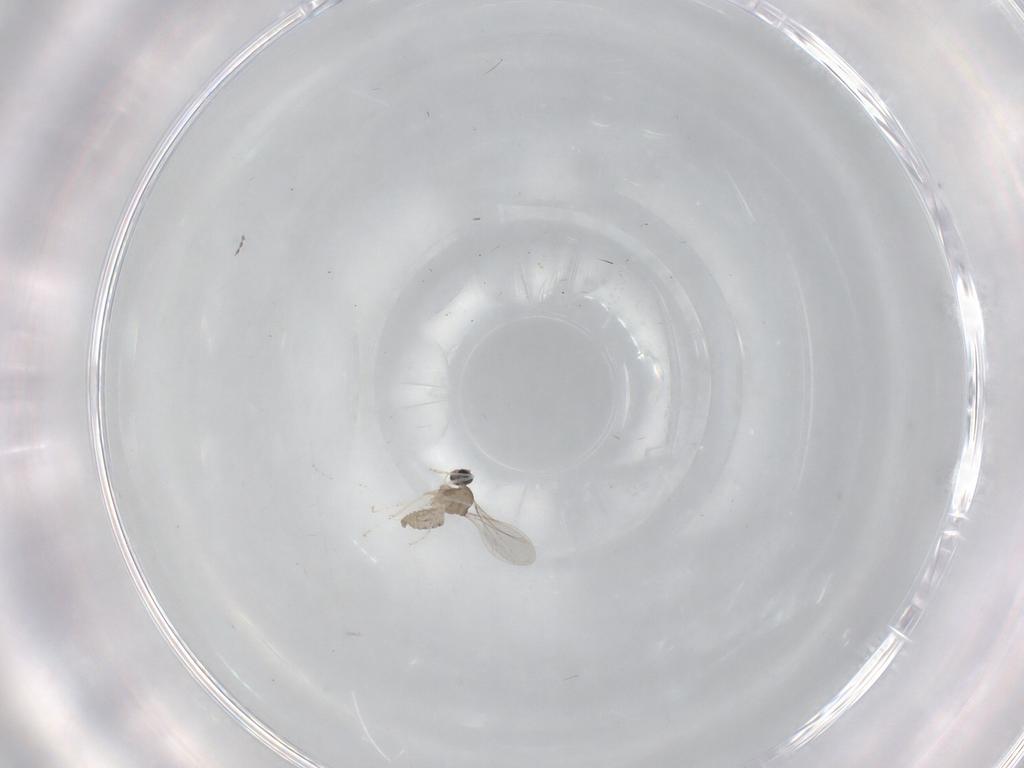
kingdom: Animalia
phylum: Arthropoda
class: Insecta
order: Diptera
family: Cecidomyiidae
